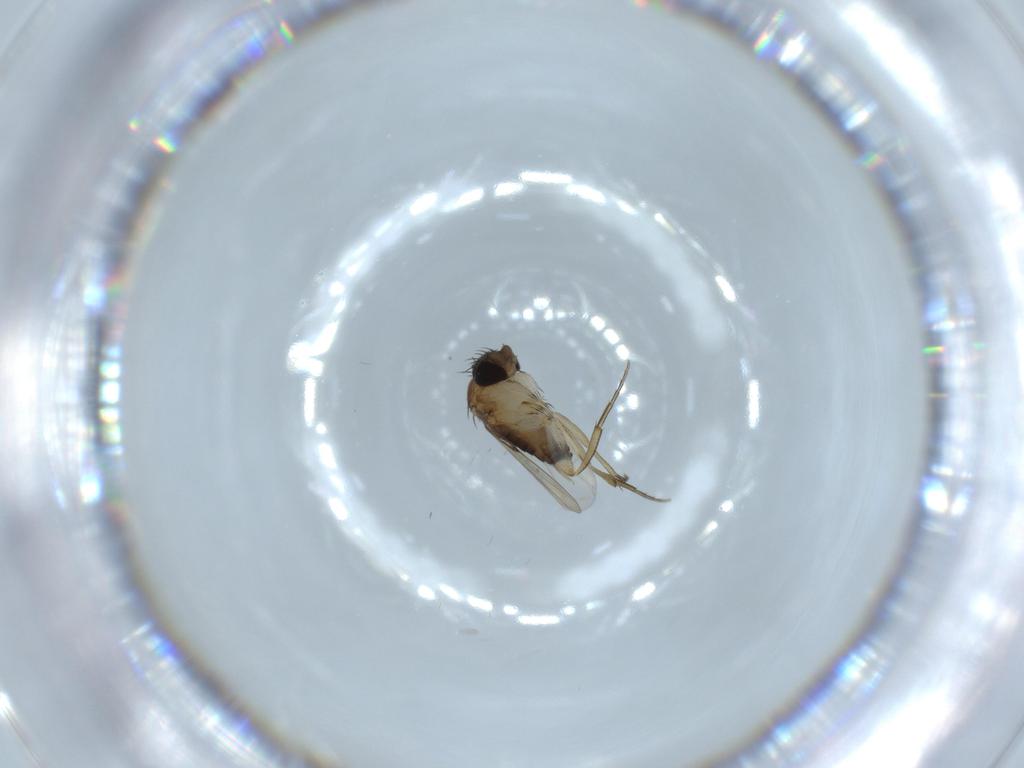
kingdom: Animalia
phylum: Arthropoda
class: Insecta
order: Diptera
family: Phoridae
